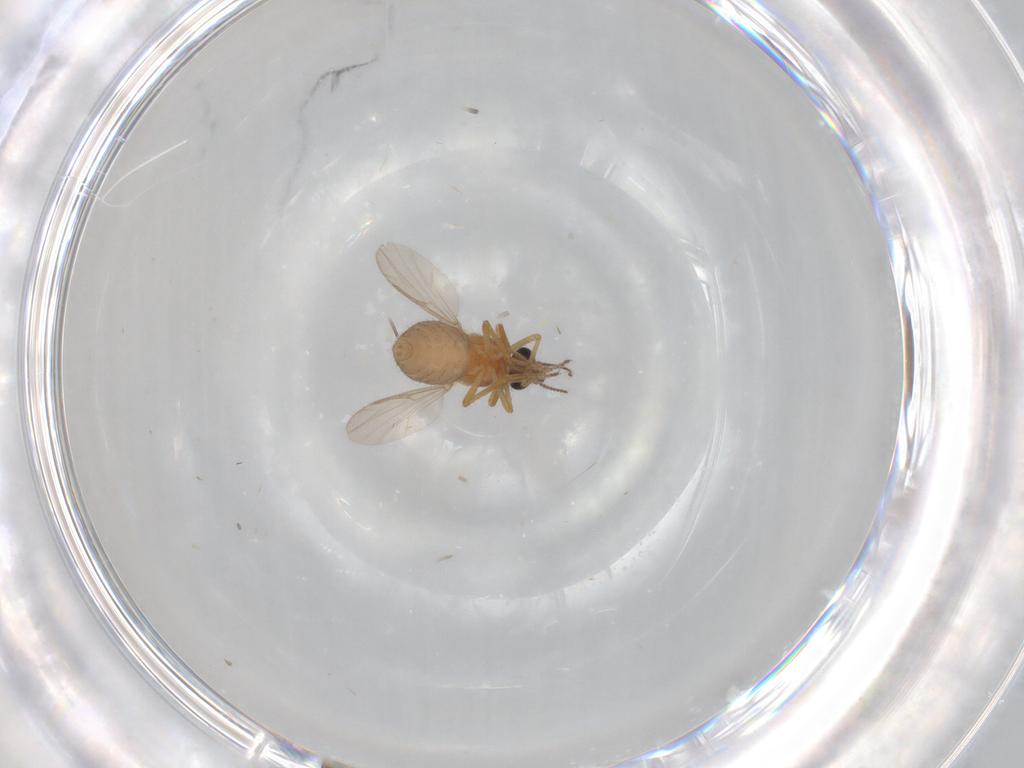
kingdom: Animalia
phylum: Arthropoda
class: Insecta
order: Diptera
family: Ceratopogonidae
